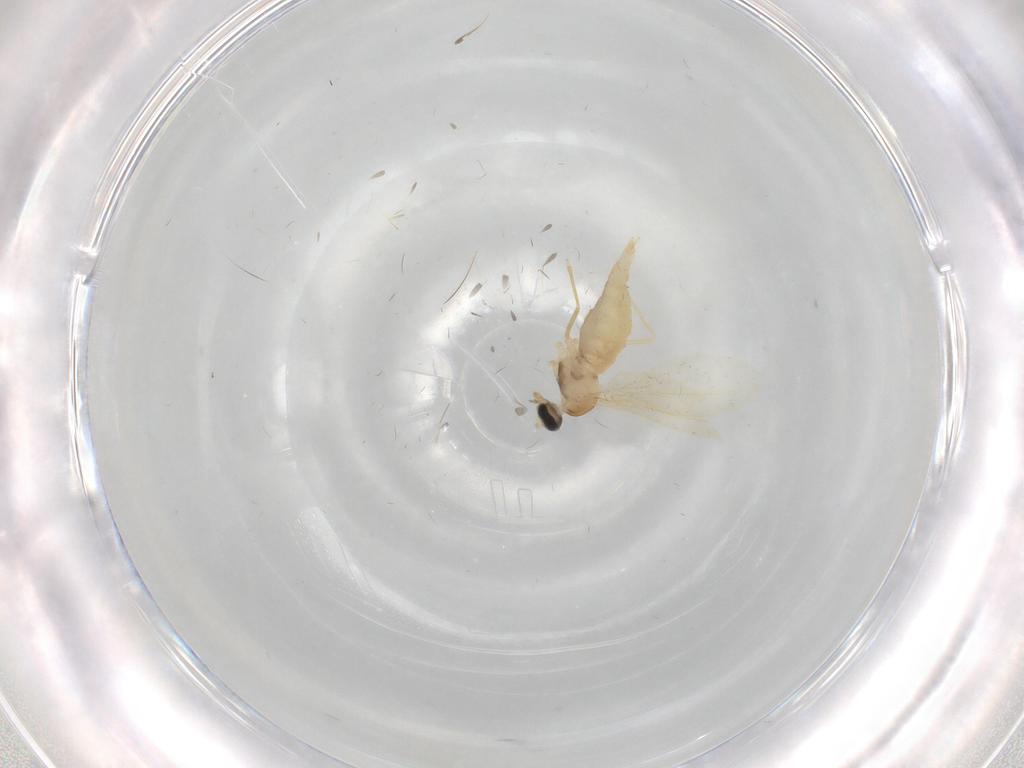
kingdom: Animalia
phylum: Arthropoda
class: Insecta
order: Diptera
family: Cecidomyiidae
